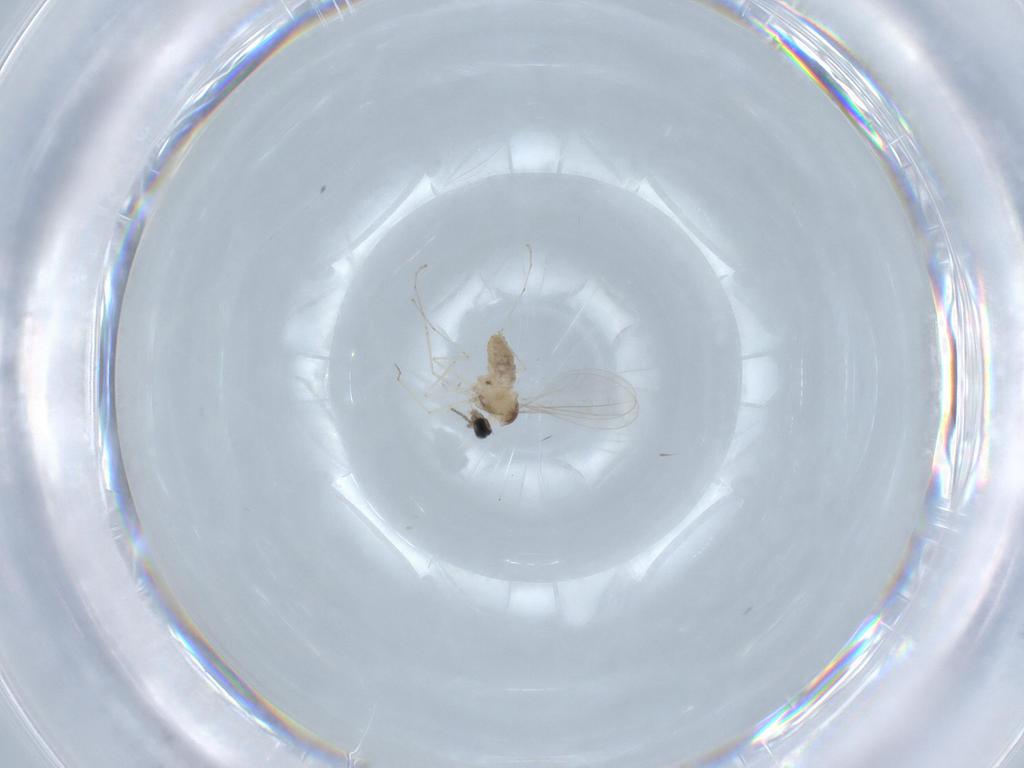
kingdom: Animalia
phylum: Arthropoda
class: Insecta
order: Diptera
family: Cecidomyiidae
